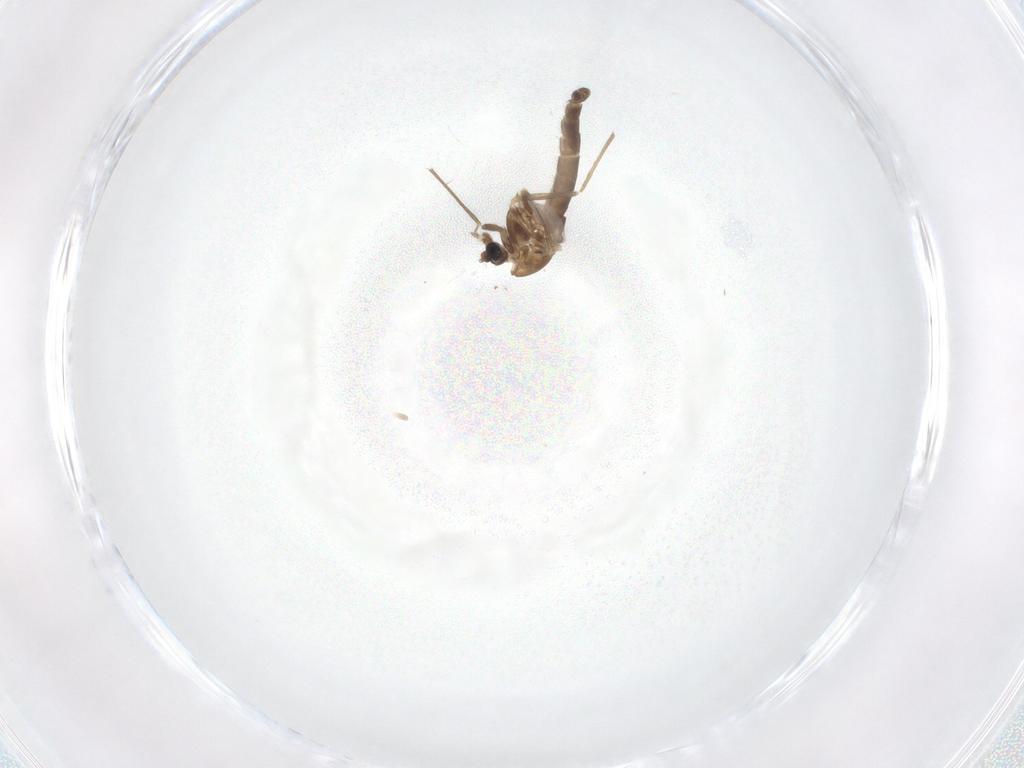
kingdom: Animalia
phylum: Arthropoda
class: Insecta
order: Diptera
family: Chironomidae
